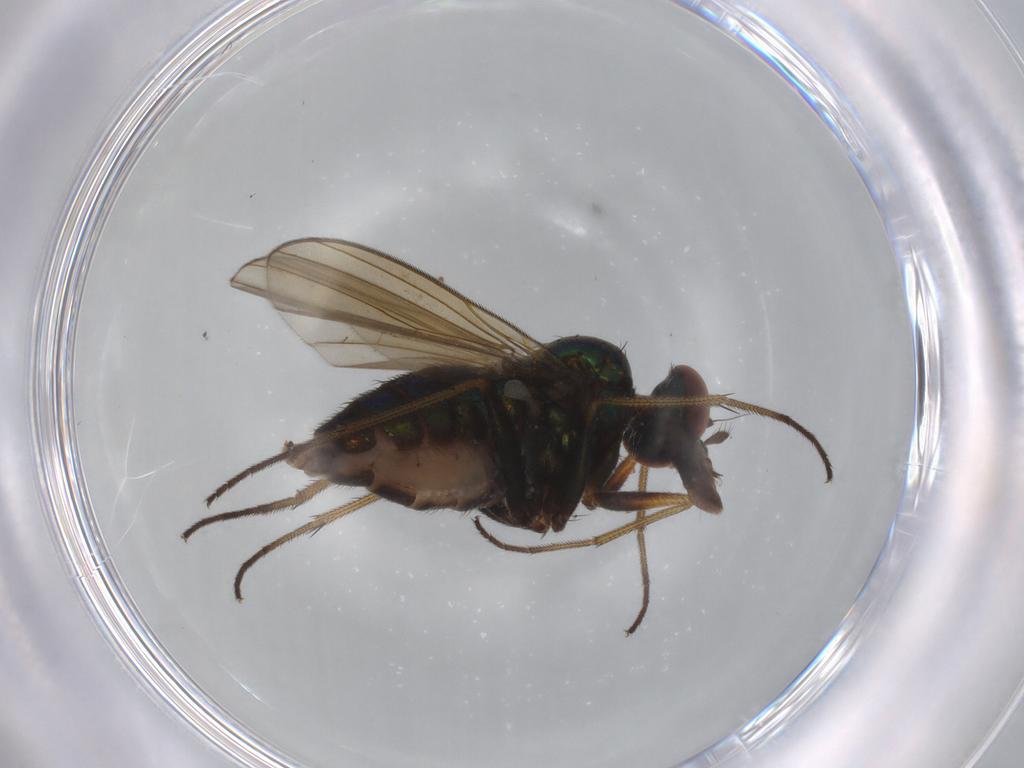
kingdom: Animalia
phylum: Arthropoda
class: Insecta
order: Diptera
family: Dolichopodidae
